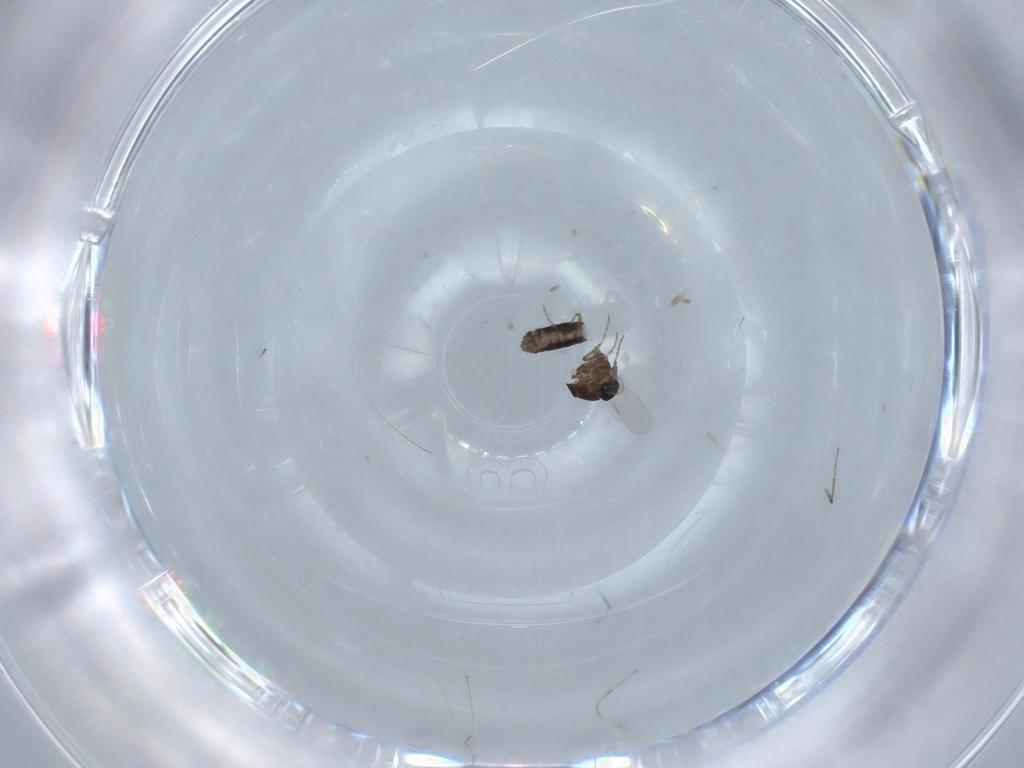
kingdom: Animalia
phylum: Arthropoda
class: Insecta
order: Diptera
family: Ceratopogonidae
